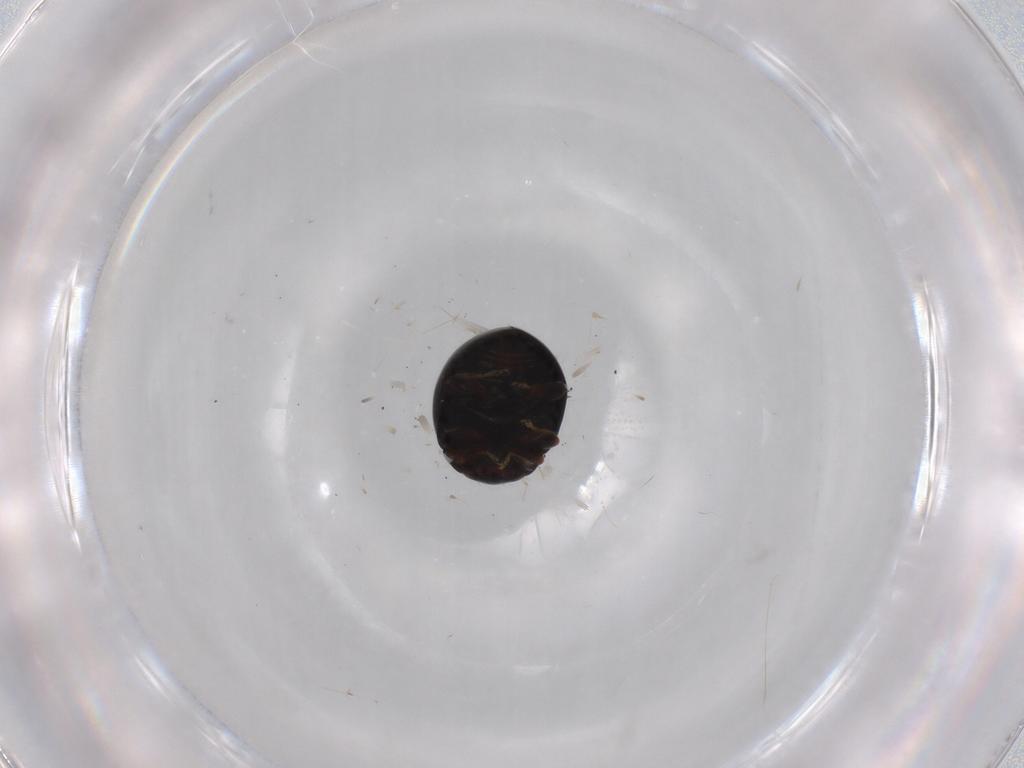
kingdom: Animalia
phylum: Arthropoda
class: Insecta
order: Coleoptera
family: Coccinellidae
